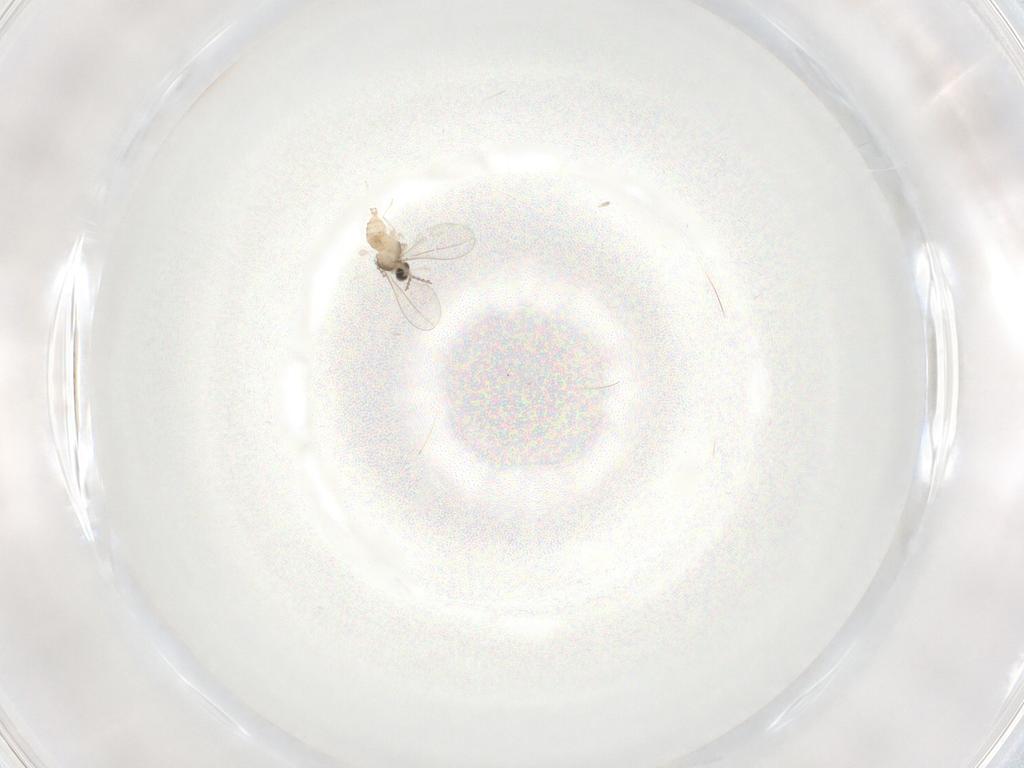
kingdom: Animalia
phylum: Arthropoda
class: Insecta
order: Diptera
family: Cecidomyiidae
